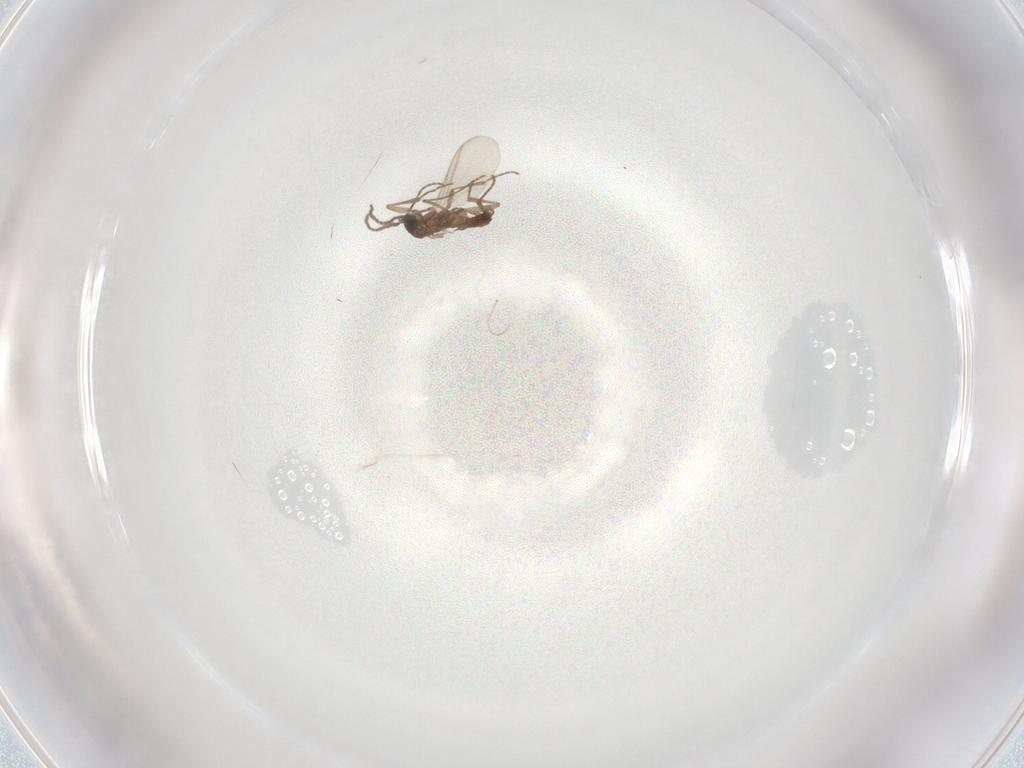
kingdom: Animalia
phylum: Arthropoda
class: Insecta
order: Diptera
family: Cecidomyiidae
